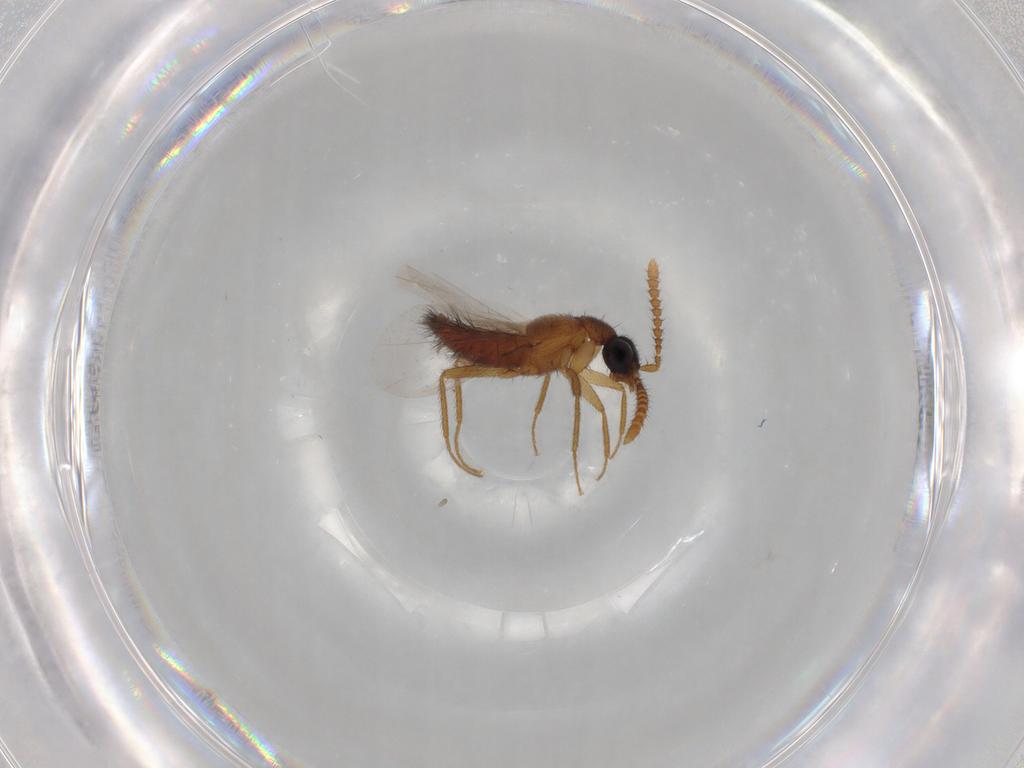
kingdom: Animalia
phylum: Arthropoda
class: Insecta
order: Coleoptera
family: Staphylinidae
